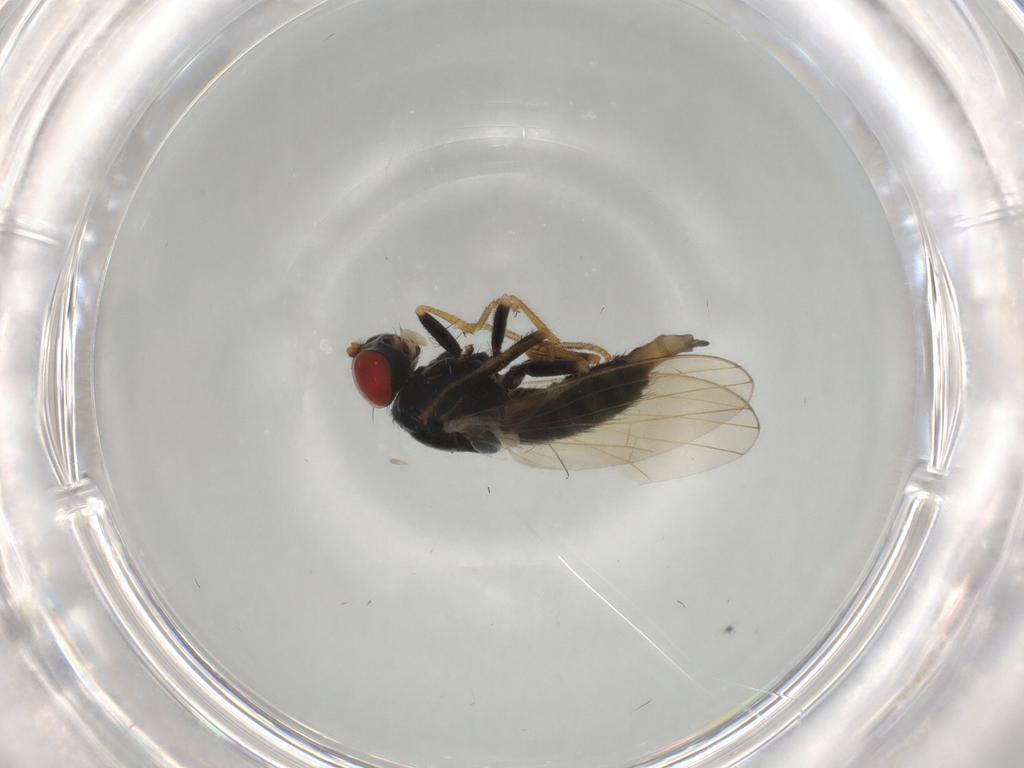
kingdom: Animalia
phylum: Arthropoda
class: Insecta
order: Diptera
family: Chamaemyiidae
